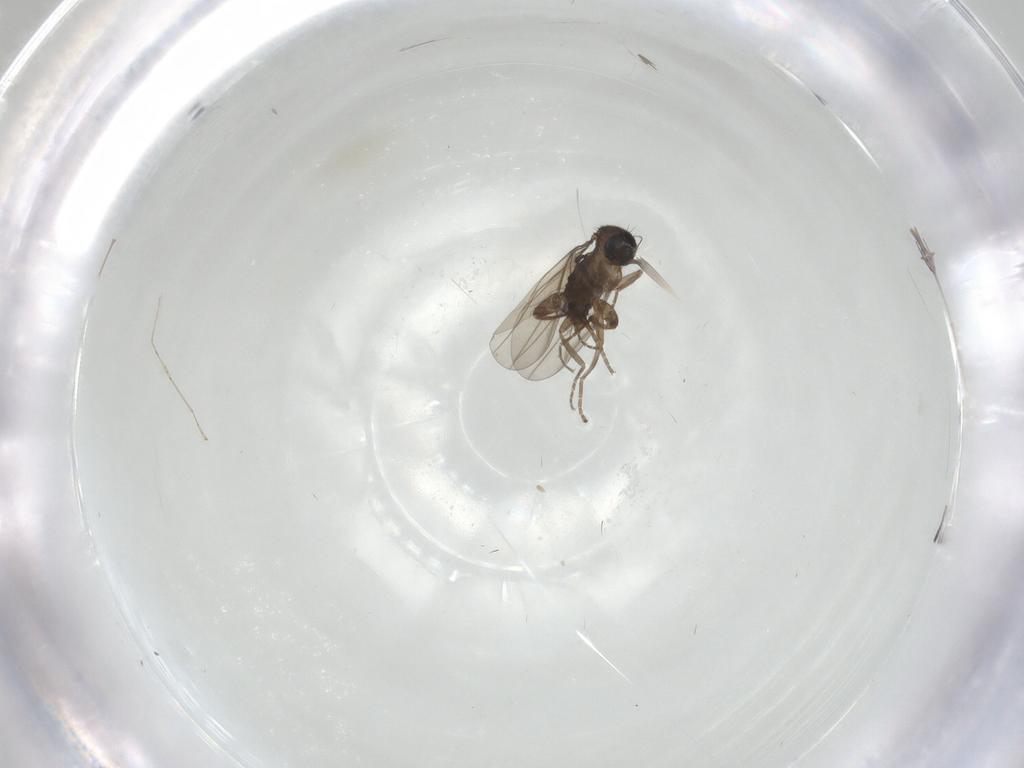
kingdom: Animalia
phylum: Arthropoda
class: Insecta
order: Diptera
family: Phoridae
